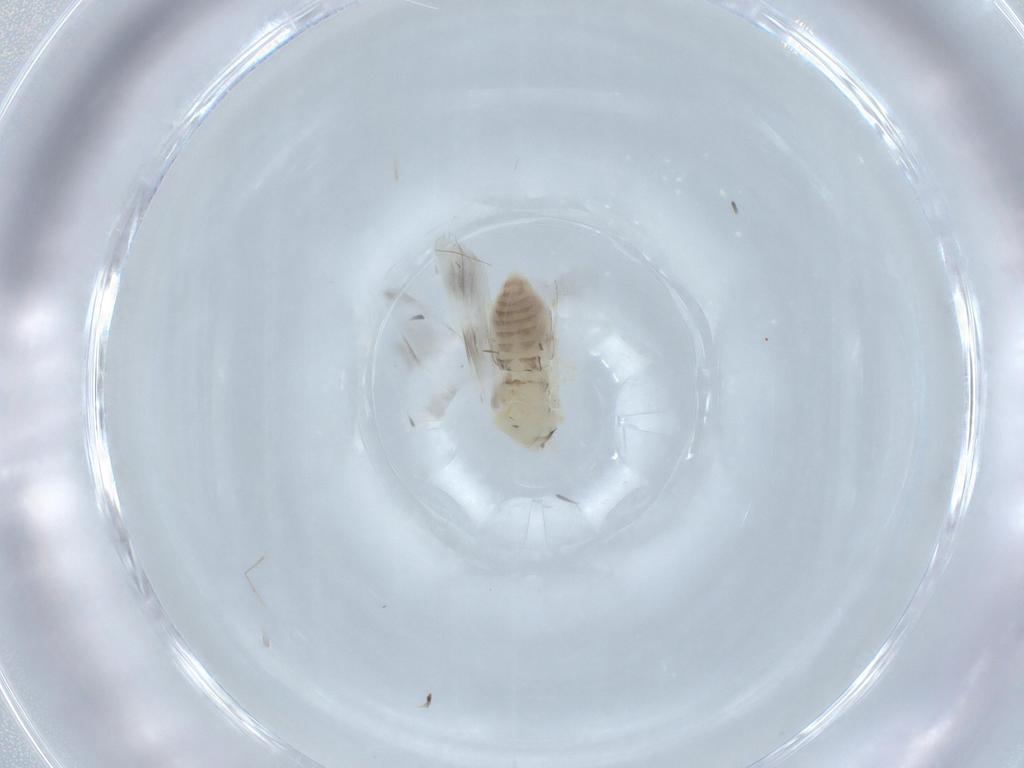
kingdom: Animalia
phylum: Arthropoda
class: Insecta
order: Hemiptera
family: Aleyrodidae
